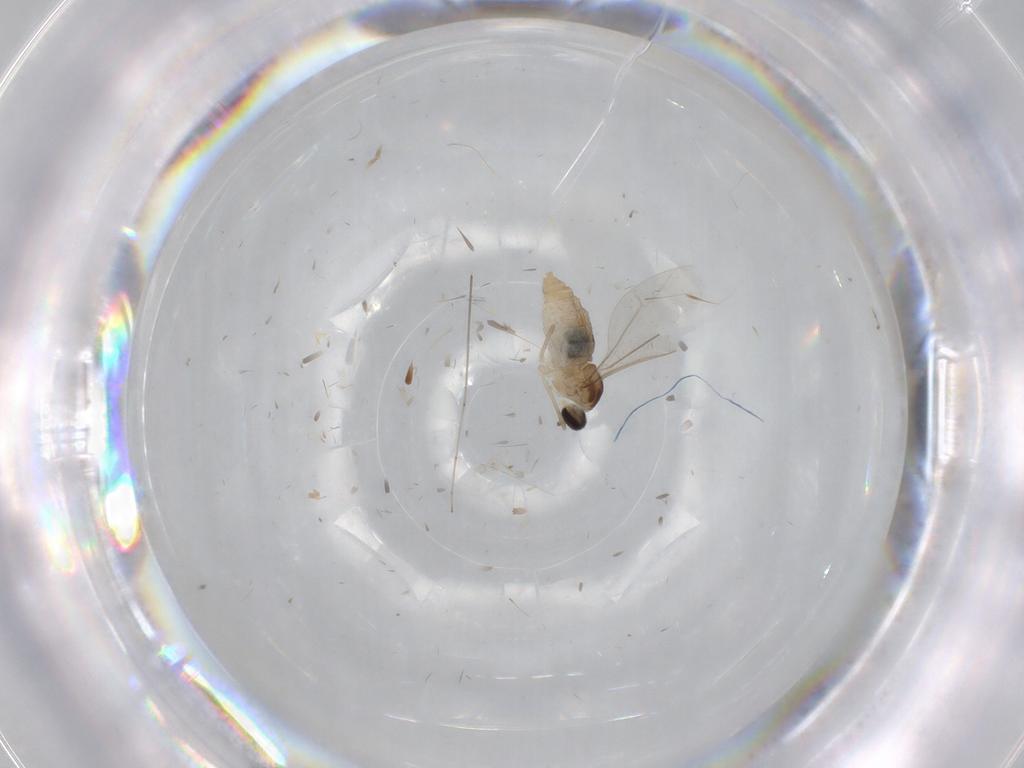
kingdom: Animalia
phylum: Arthropoda
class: Insecta
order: Diptera
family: Cecidomyiidae
